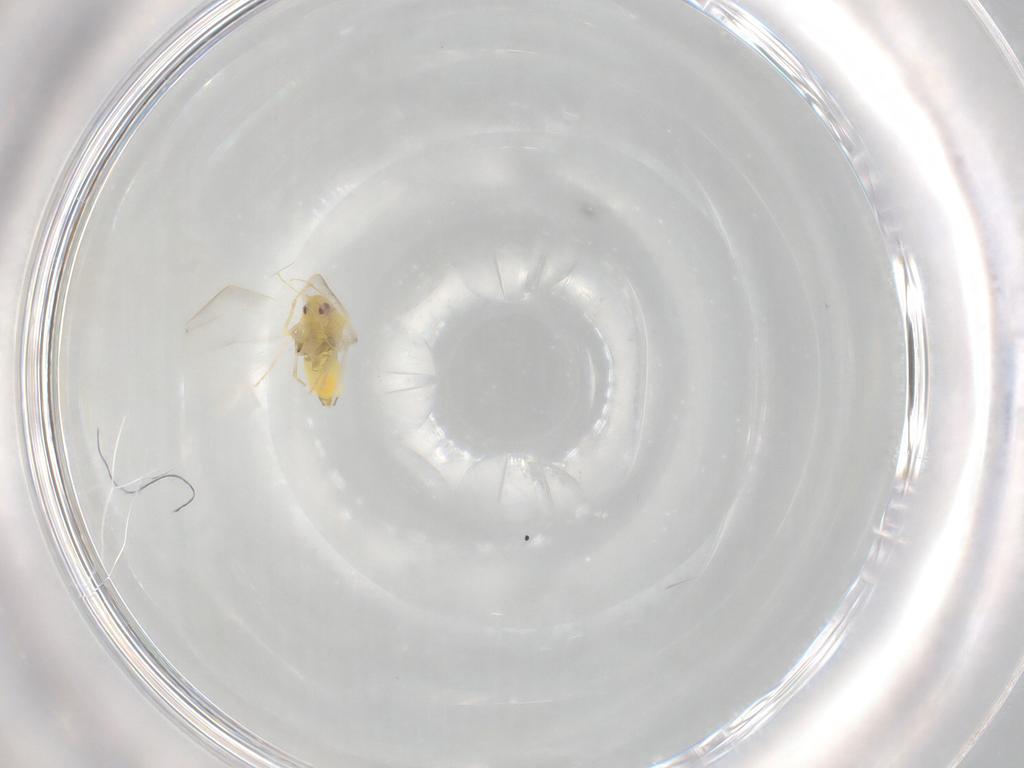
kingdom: Animalia
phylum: Arthropoda
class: Insecta
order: Hemiptera
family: Aleyrodidae
